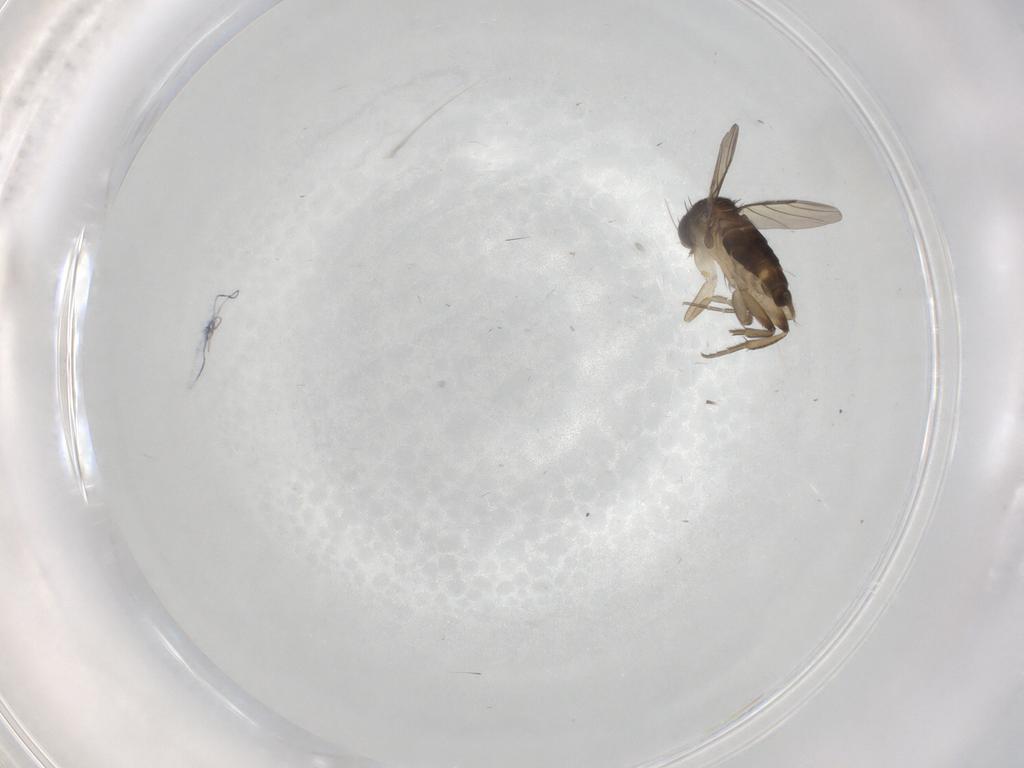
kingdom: Animalia
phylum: Arthropoda
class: Insecta
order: Diptera
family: Phoridae
